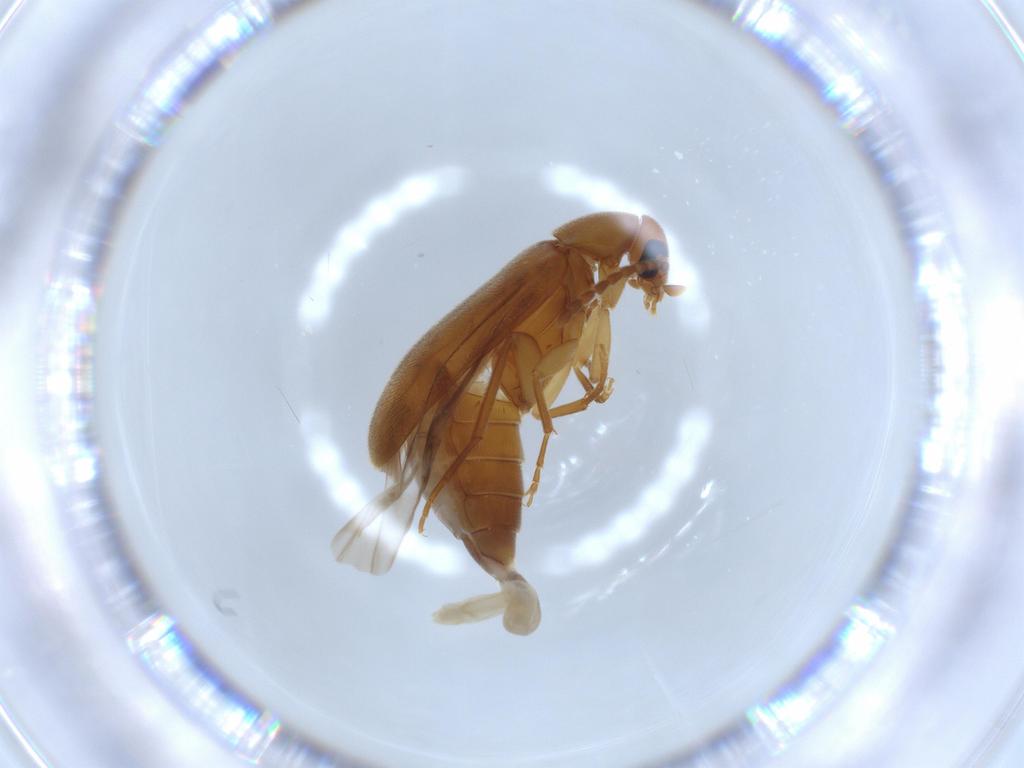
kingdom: Animalia
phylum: Arthropoda
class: Insecta
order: Coleoptera
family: Scraptiidae
